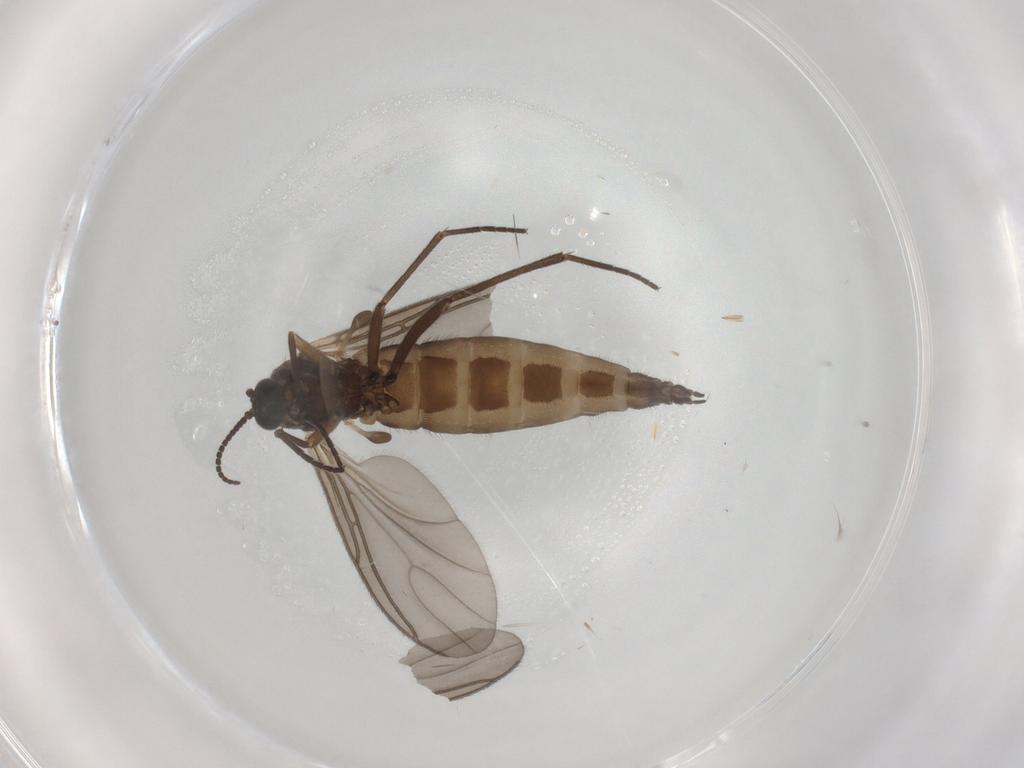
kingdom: Animalia
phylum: Arthropoda
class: Insecta
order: Diptera
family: Sciaridae
